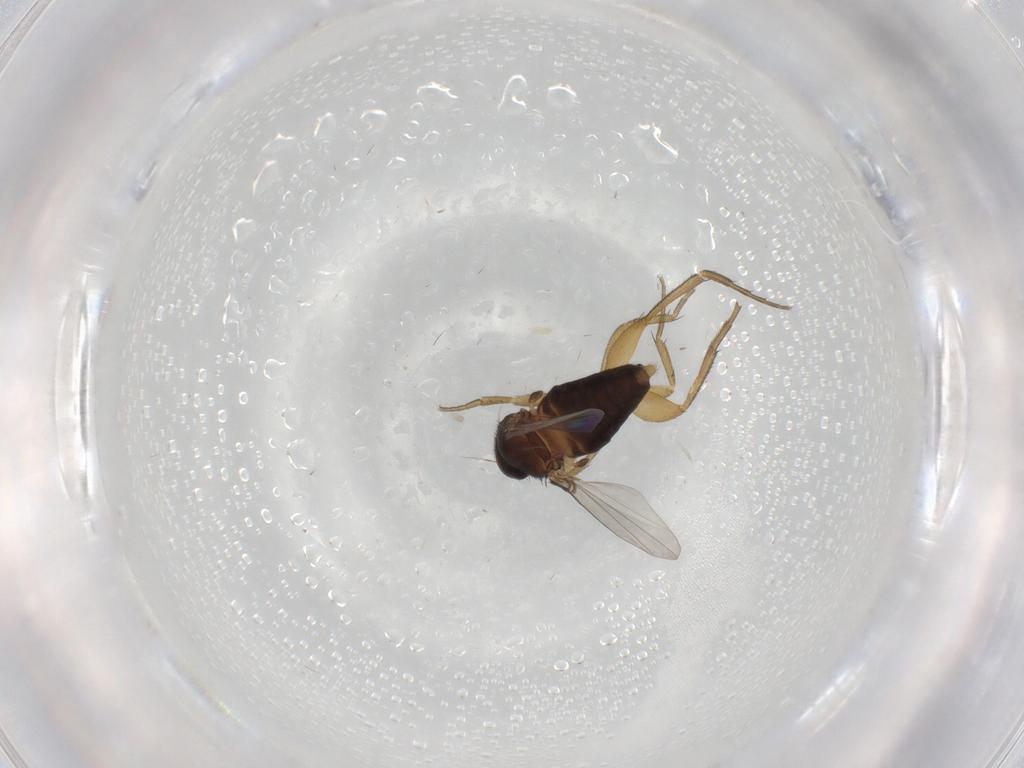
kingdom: Animalia
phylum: Arthropoda
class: Insecta
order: Diptera
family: Phoridae
